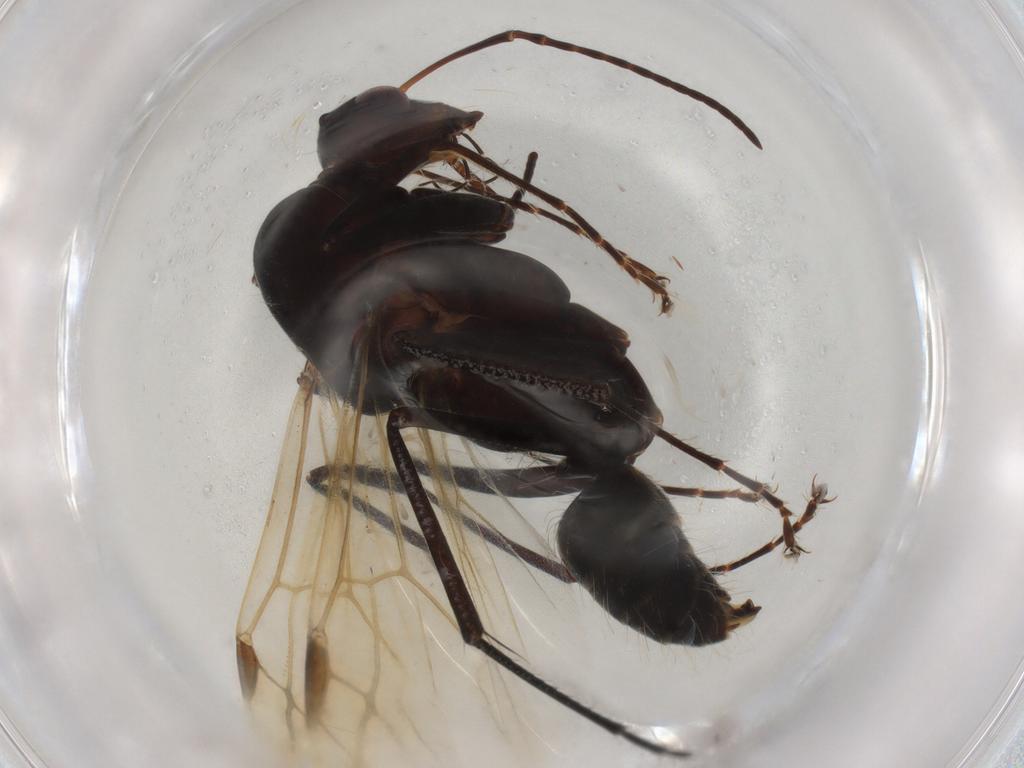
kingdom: Animalia
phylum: Arthropoda
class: Insecta
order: Hymenoptera
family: Formicidae
